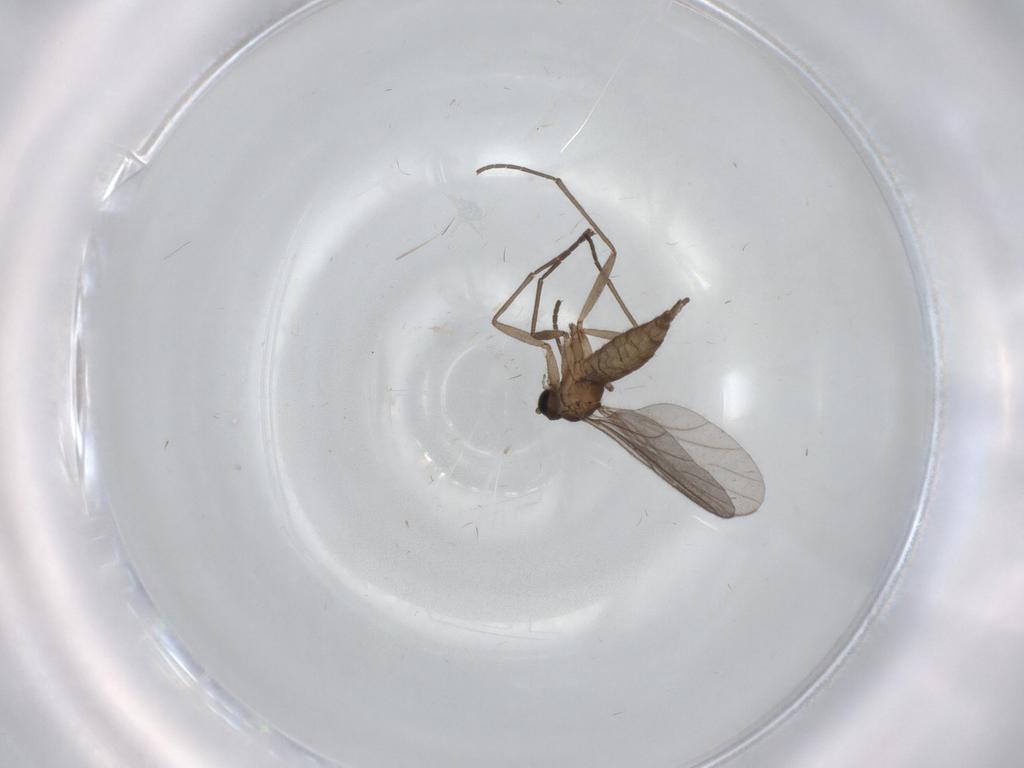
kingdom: Animalia
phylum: Arthropoda
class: Insecta
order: Diptera
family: Sciaridae
